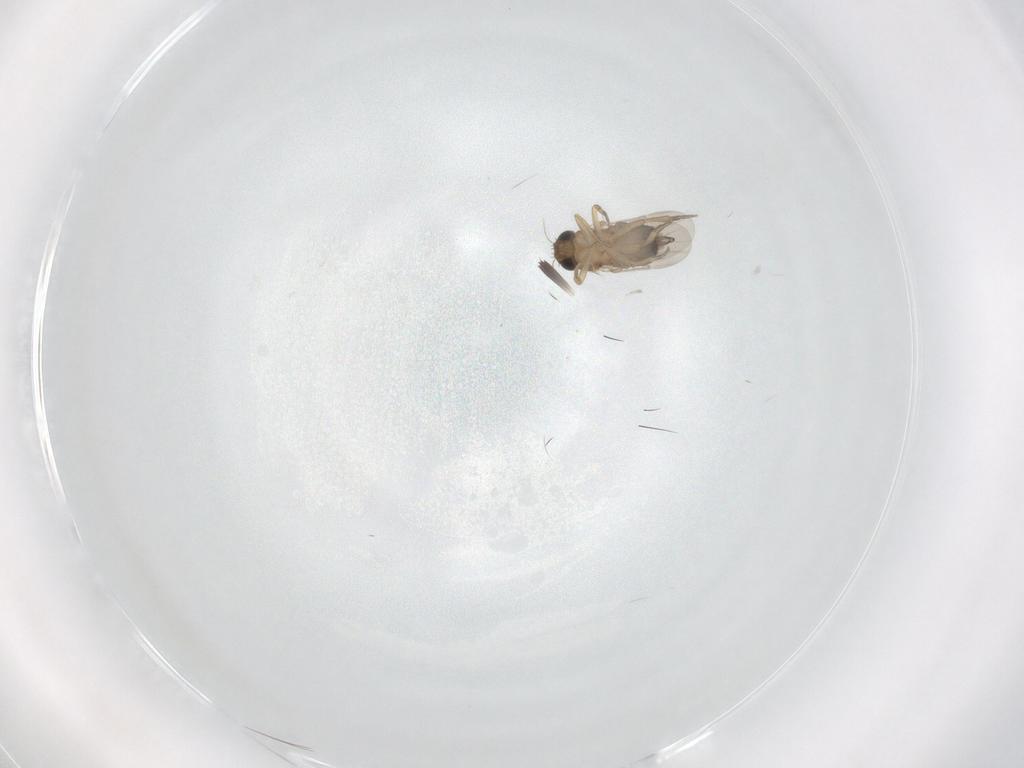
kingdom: Animalia
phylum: Arthropoda
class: Insecta
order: Diptera
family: Phoridae
